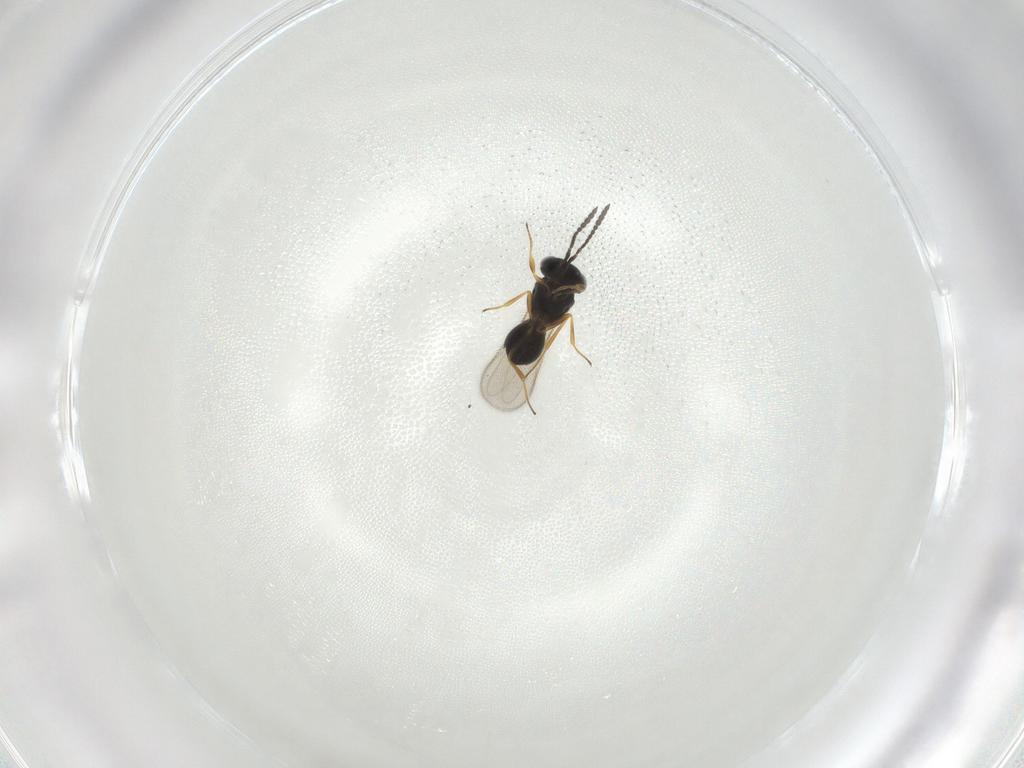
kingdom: Animalia
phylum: Arthropoda
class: Insecta
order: Hymenoptera
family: Scelionidae
